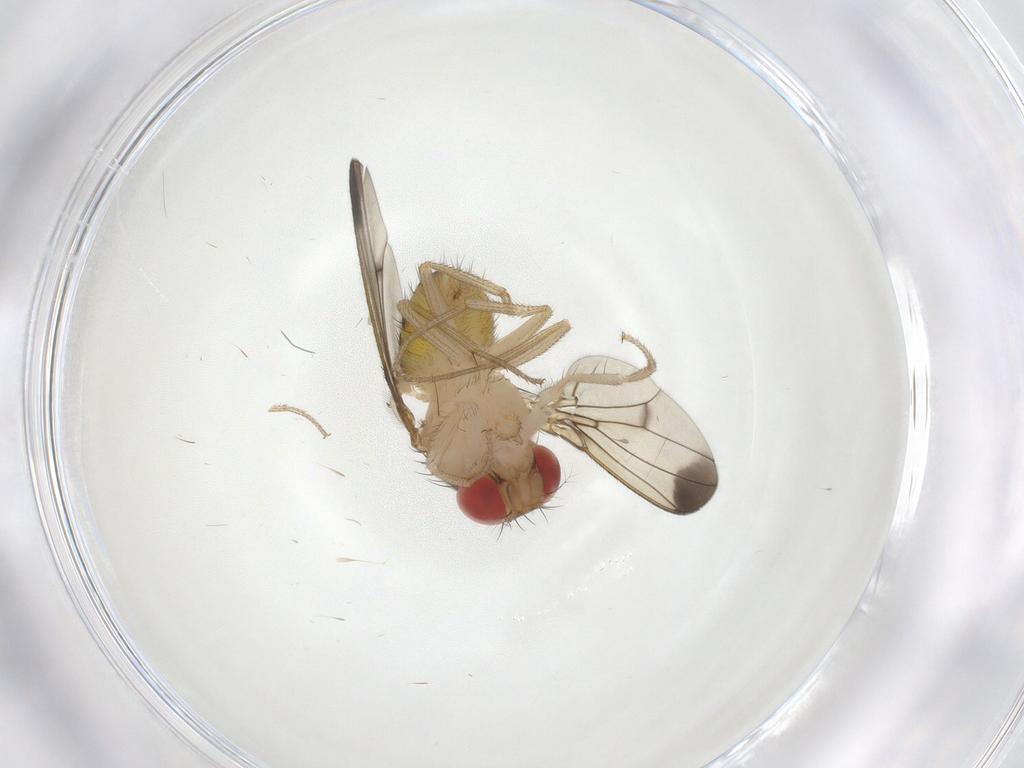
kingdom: Animalia
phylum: Arthropoda
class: Insecta
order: Diptera
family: Drosophilidae
